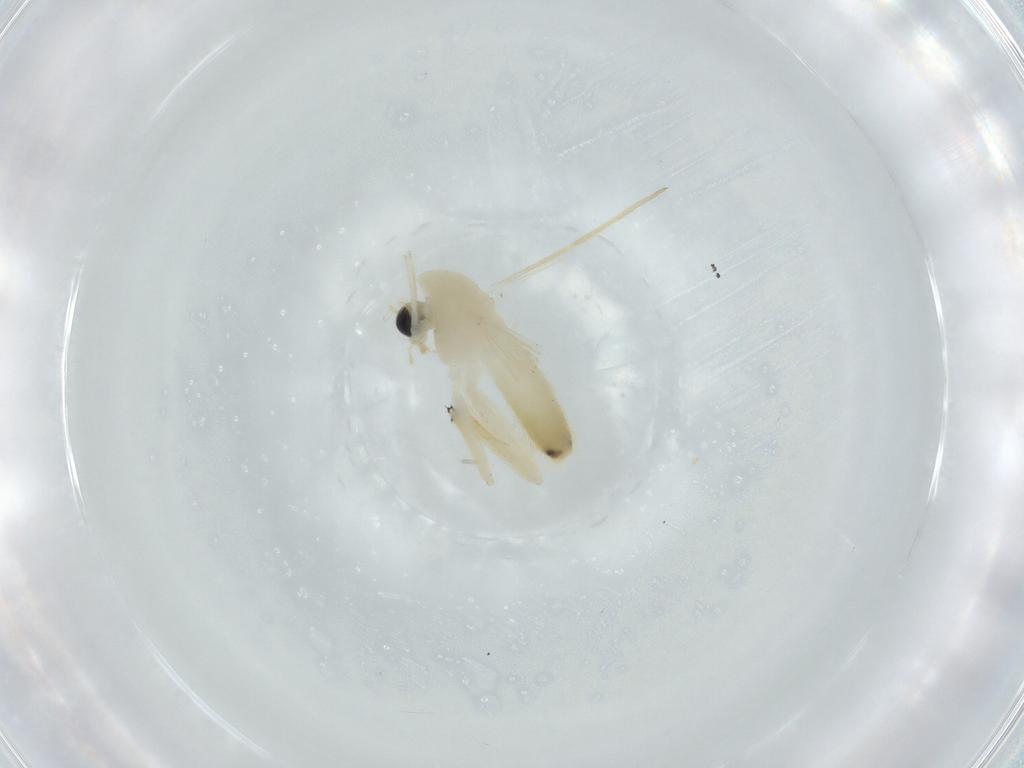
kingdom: Animalia
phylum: Arthropoda
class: Insecta
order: Diptera
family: Chironomidae
